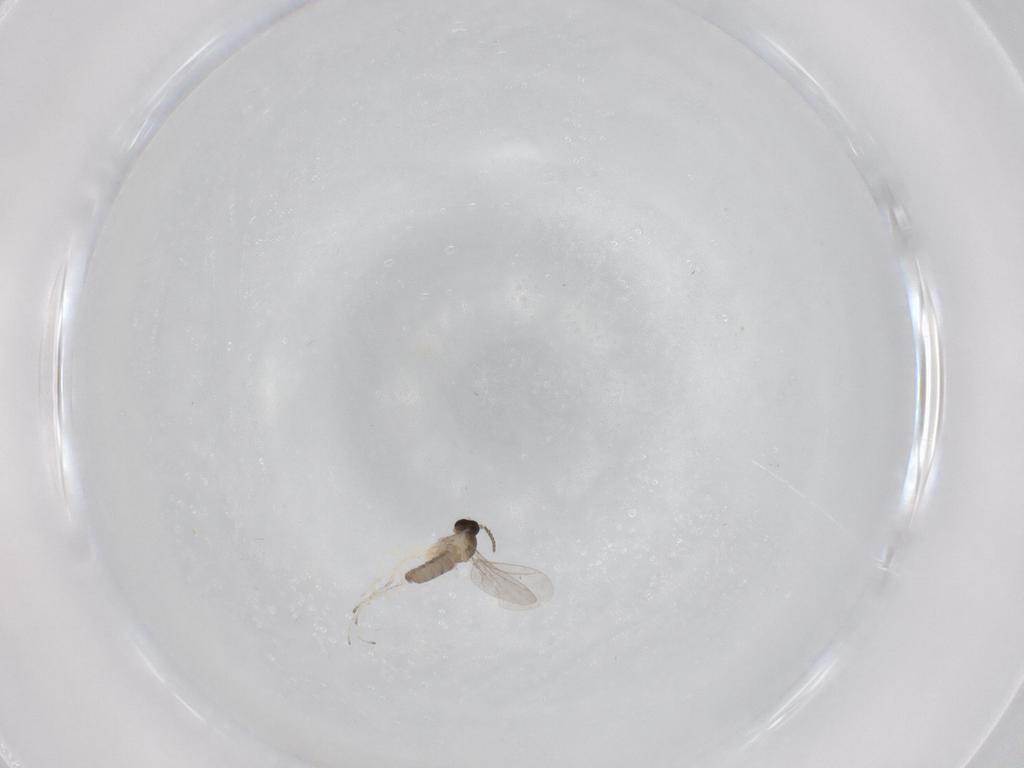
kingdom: Animalia
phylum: Arthropoda
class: Insecta
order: Diptera
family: Cecidomyiidae
